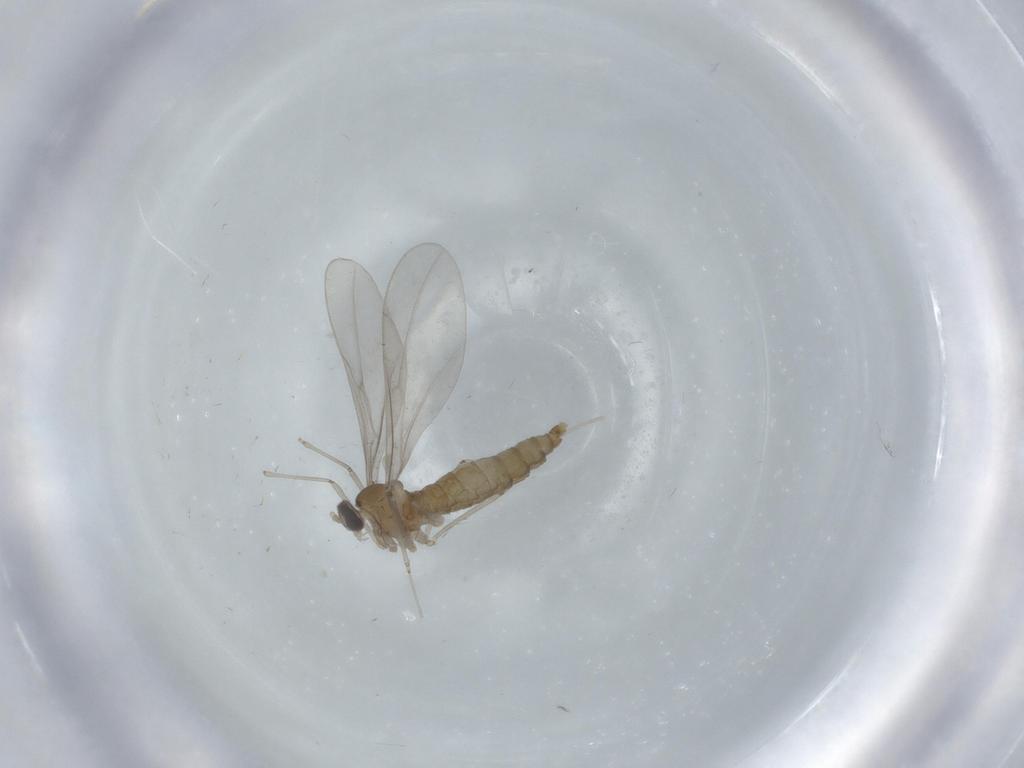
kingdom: Animalia
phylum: Arthropoda
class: Insecta
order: Diptera
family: Cecidomyiidae
